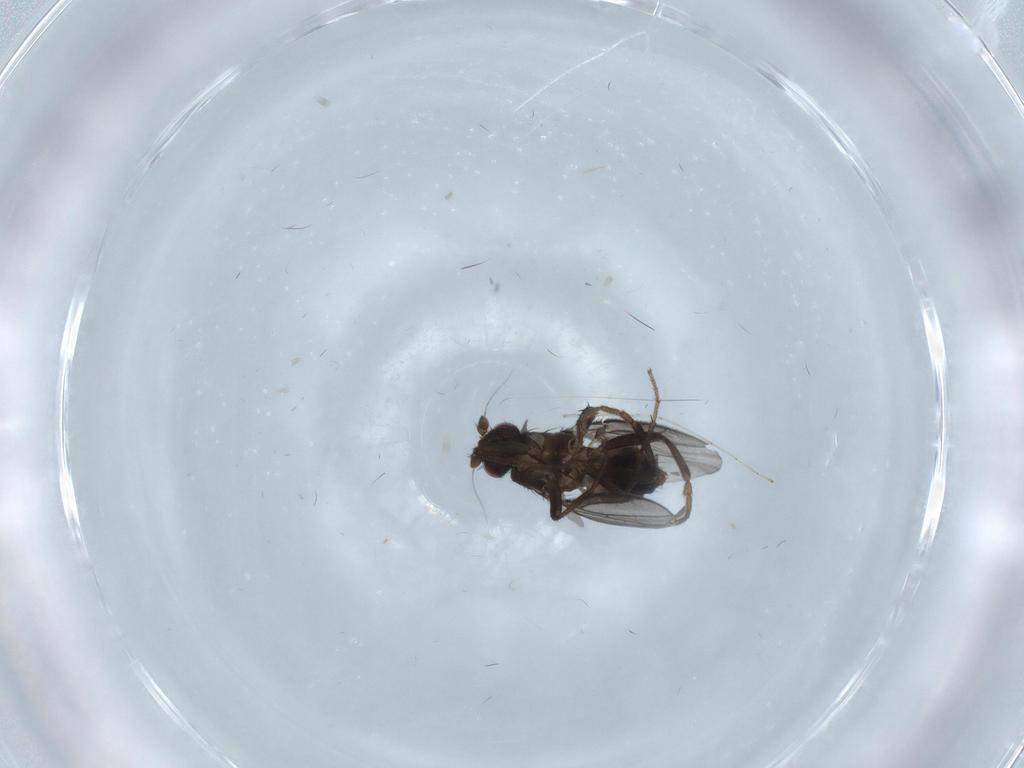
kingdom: Animalia
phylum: Arthropoda
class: Insecta
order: Diptera
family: Cecidomyiidae
